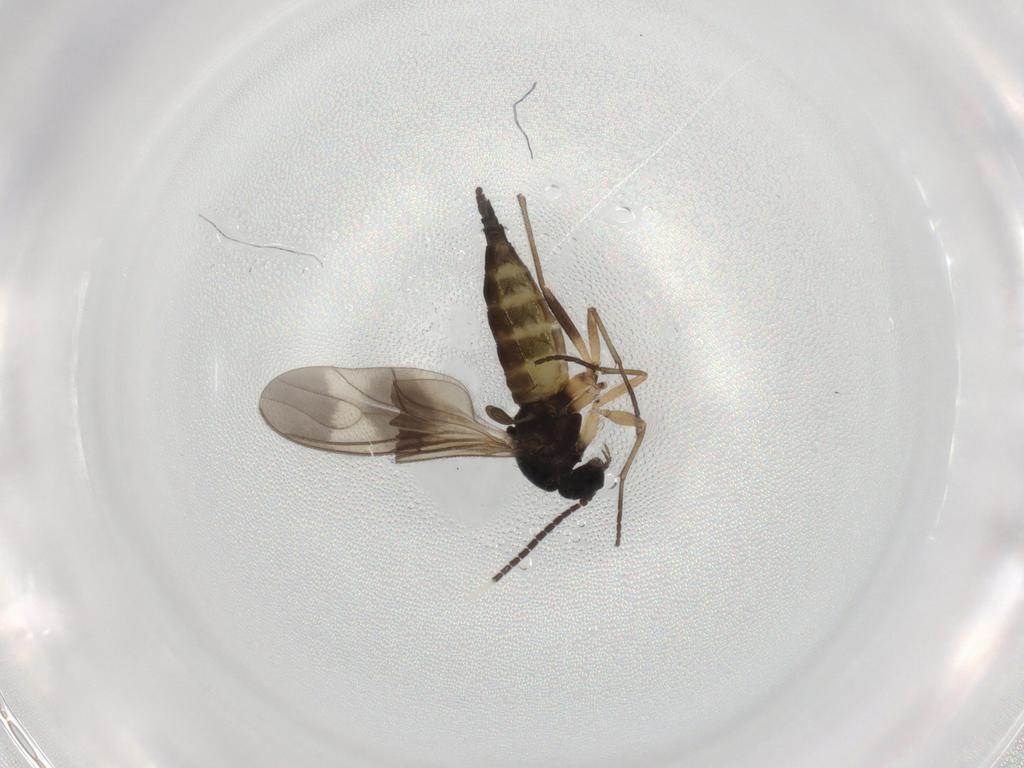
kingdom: Animalia
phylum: Arthropoda
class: Insecta
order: Diptera
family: Sciaridae
